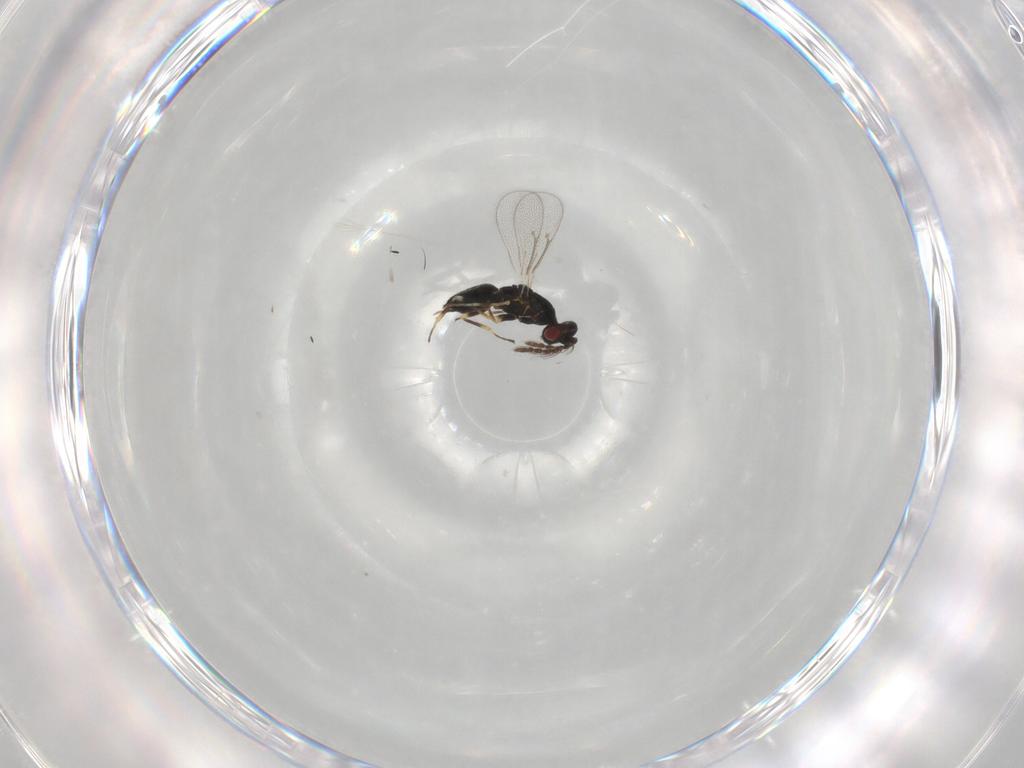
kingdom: Animalia
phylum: Arthropoda
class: Insecta
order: Hymenoptera
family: Eulophidae
